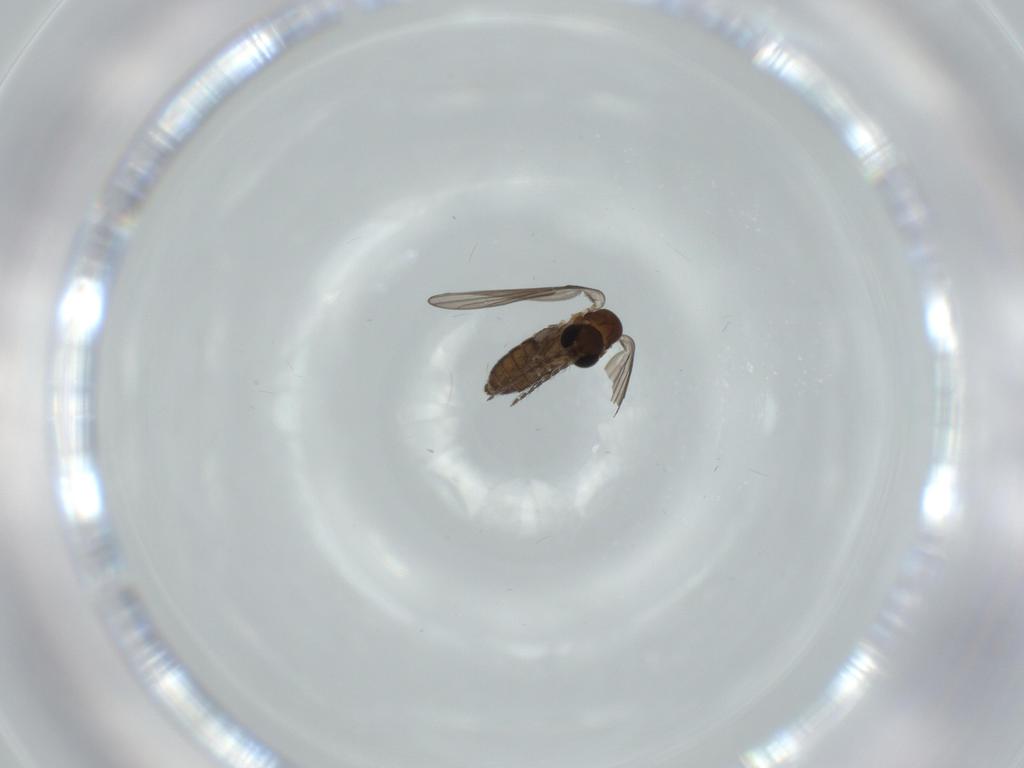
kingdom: Animalia
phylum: Arthropoda
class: Insecta
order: Diptera
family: Psychodidae
